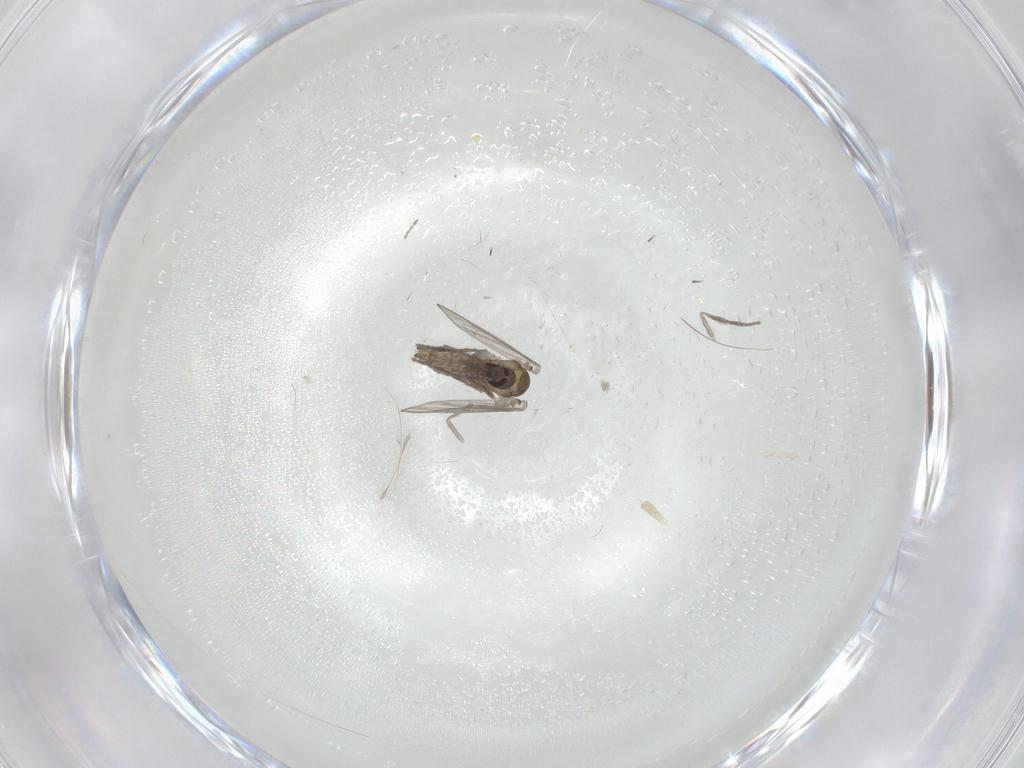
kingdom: Animalia
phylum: Arthropoda
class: Insecta
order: Diptera
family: Psychodidae
